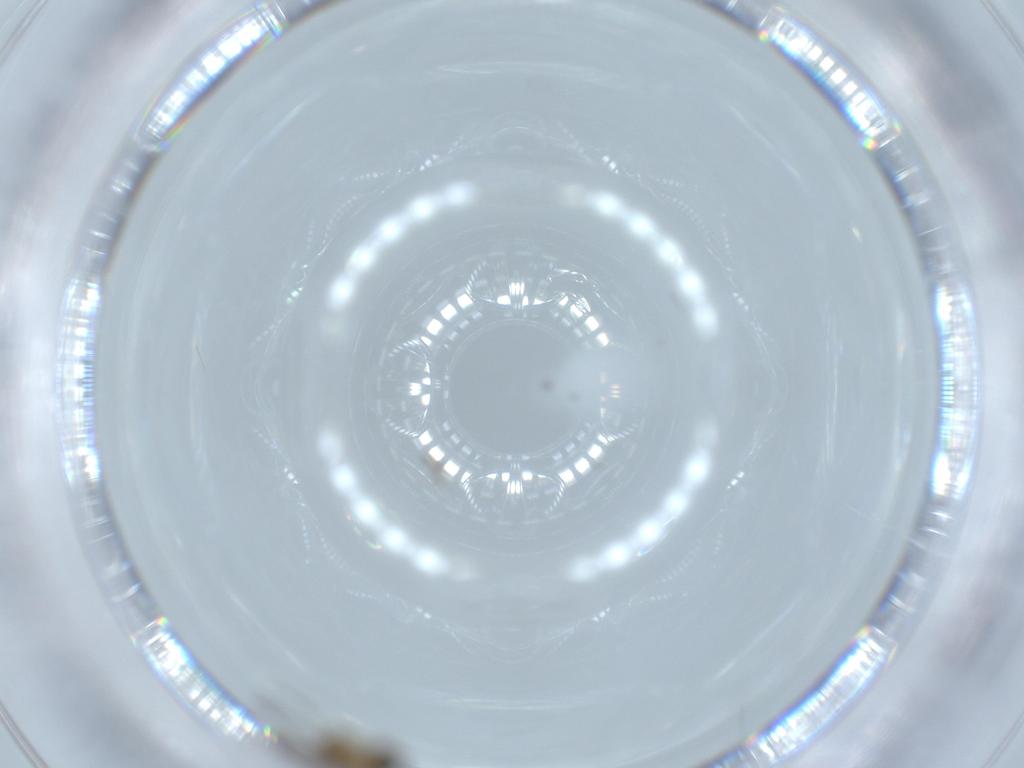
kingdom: Animalia
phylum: Arthropoda
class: Insecta
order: Diptera
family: Sciaridae
